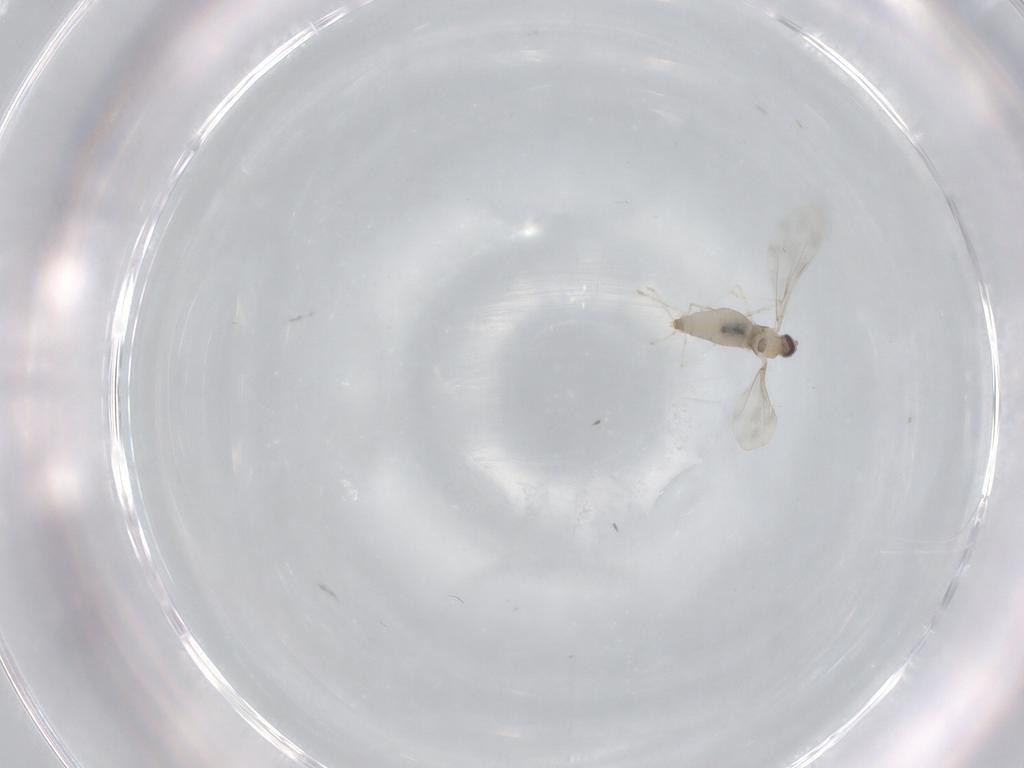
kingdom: Animalia
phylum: Arthropoda
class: Insecta
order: Diptera
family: Cecidomyiidae
